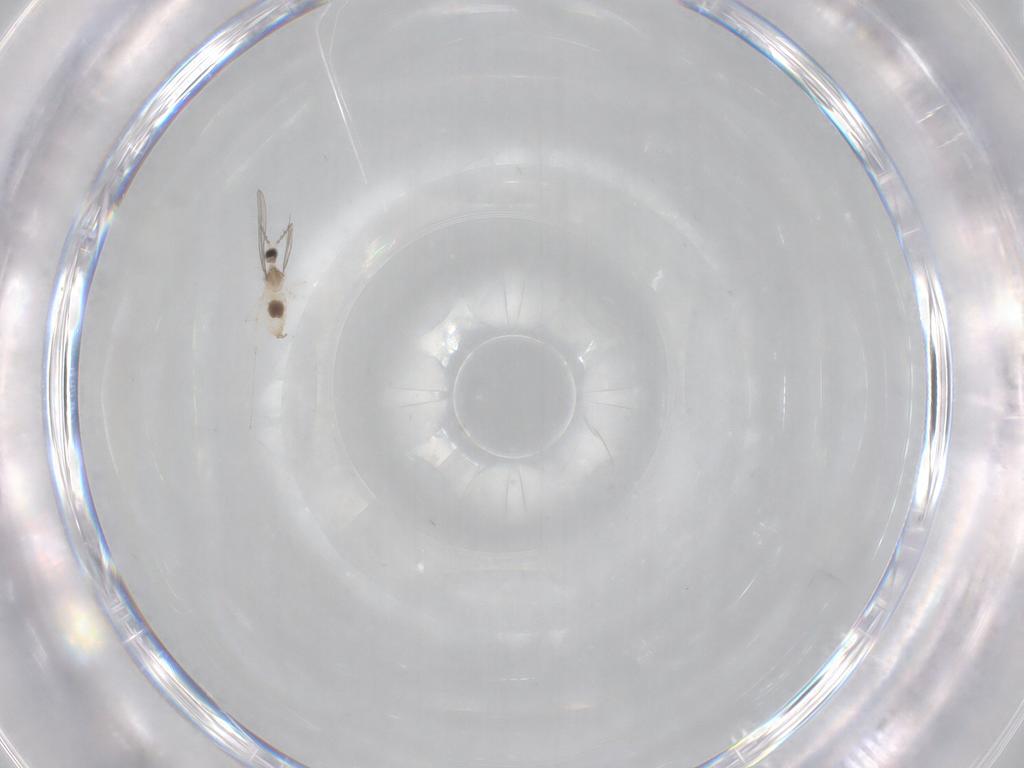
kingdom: Animalia
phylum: Arthropoda
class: Insecta
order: Diptera
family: Cecidomyiidae
